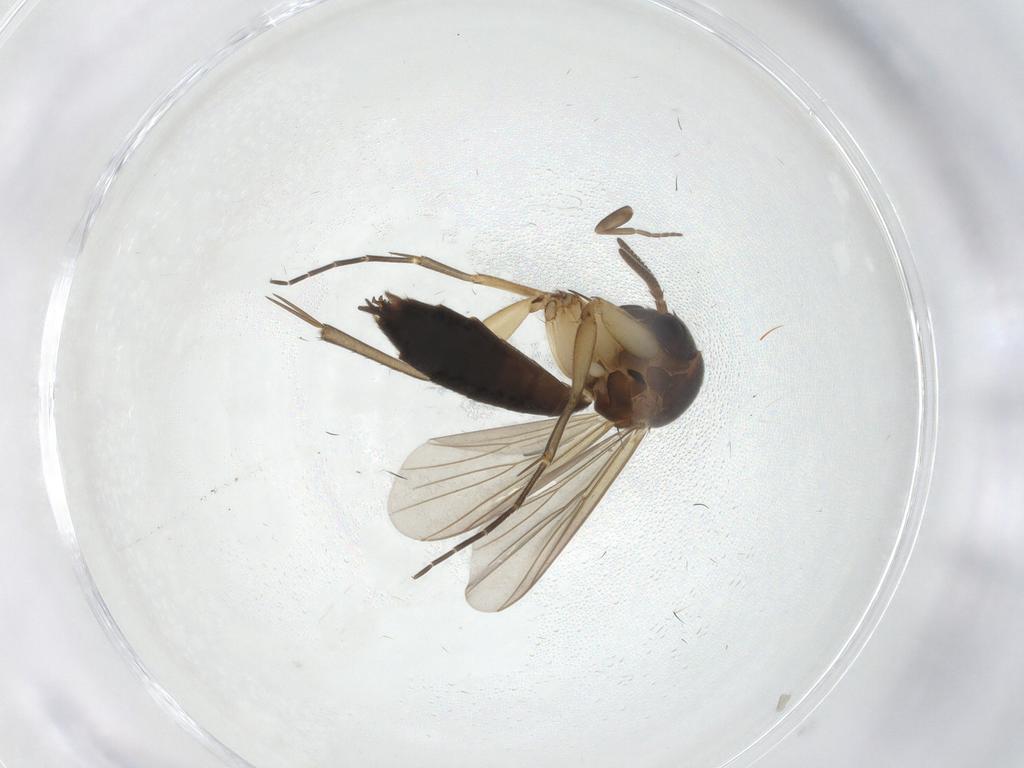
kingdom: Animalia
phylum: Arthropoda
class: Insecta
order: Diptera
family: Mycetophilidae
